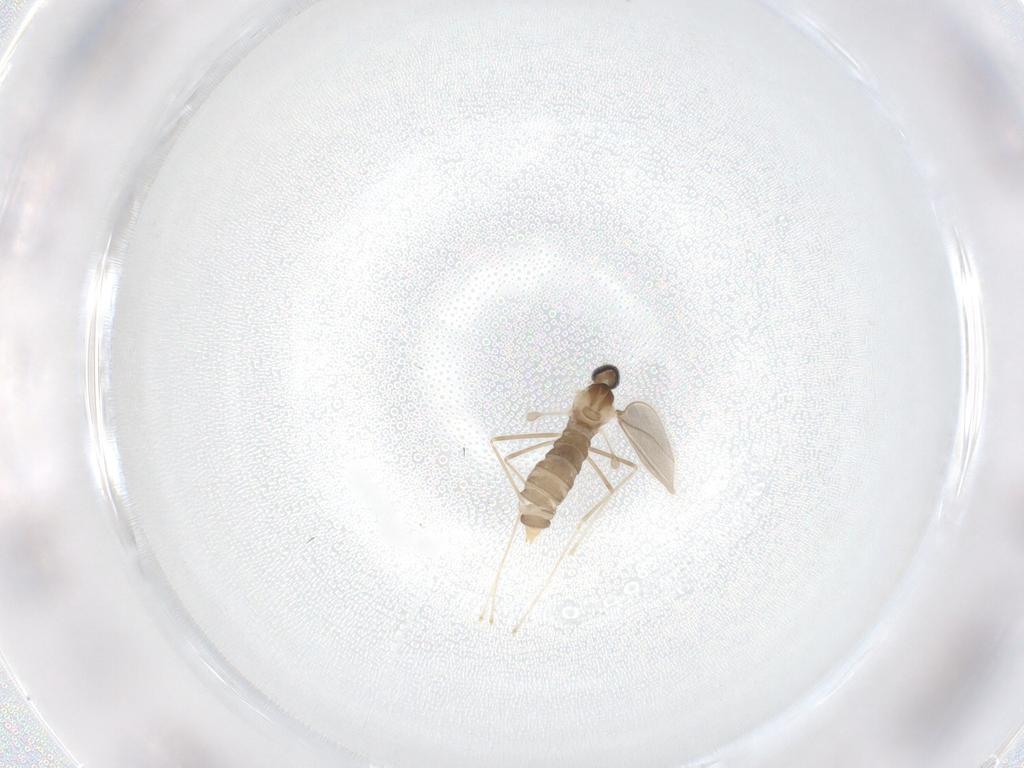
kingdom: Animalia
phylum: Arthropoda
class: Insecta
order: Diptera
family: Cecidomyiidae
